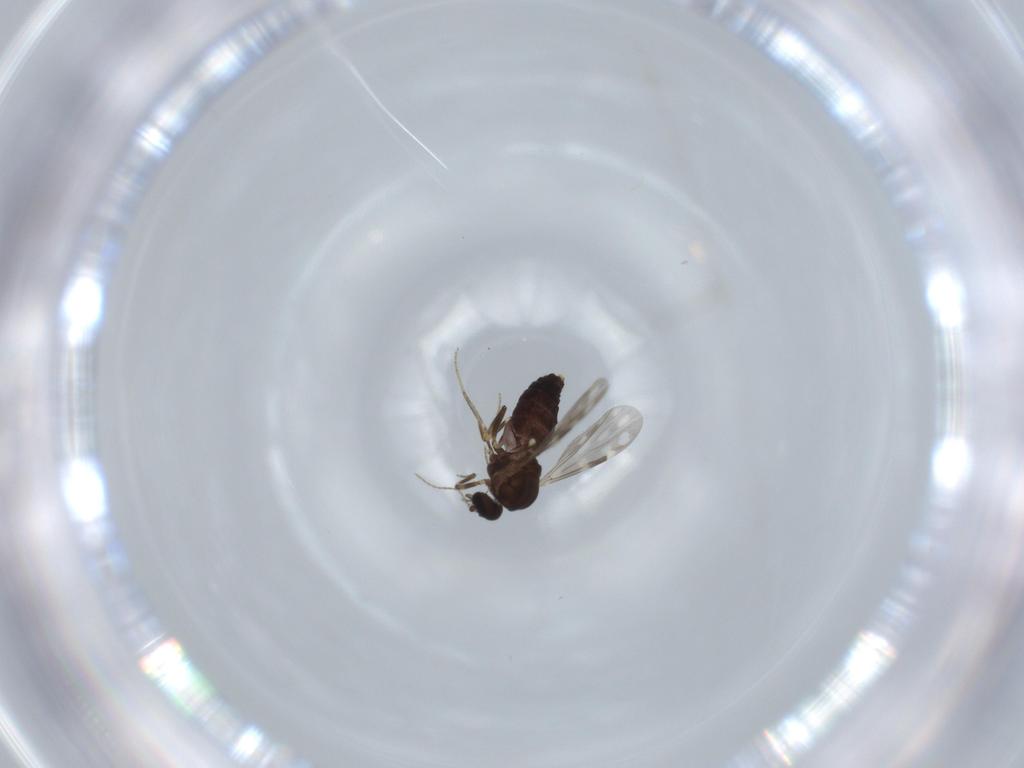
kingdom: Animalia
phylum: Arthropoda
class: Insecta
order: Diptera
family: Ceratopogonidae
